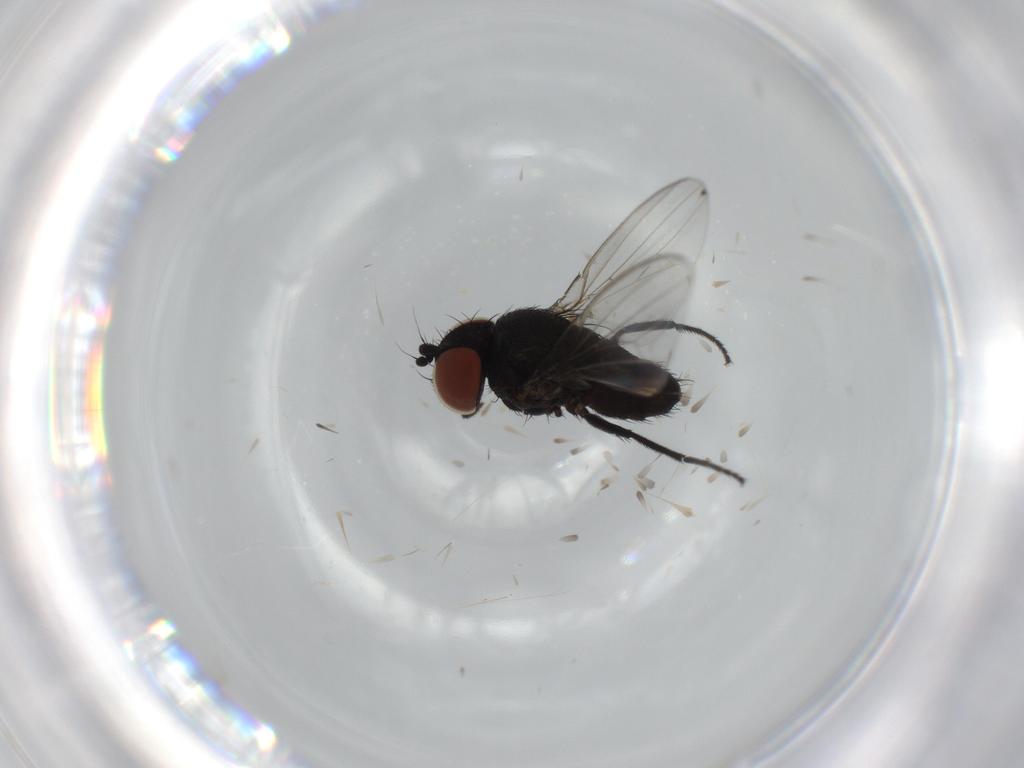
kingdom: Animalia
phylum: Arthropoda
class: Insecta
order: Diptera
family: Milichiidae
